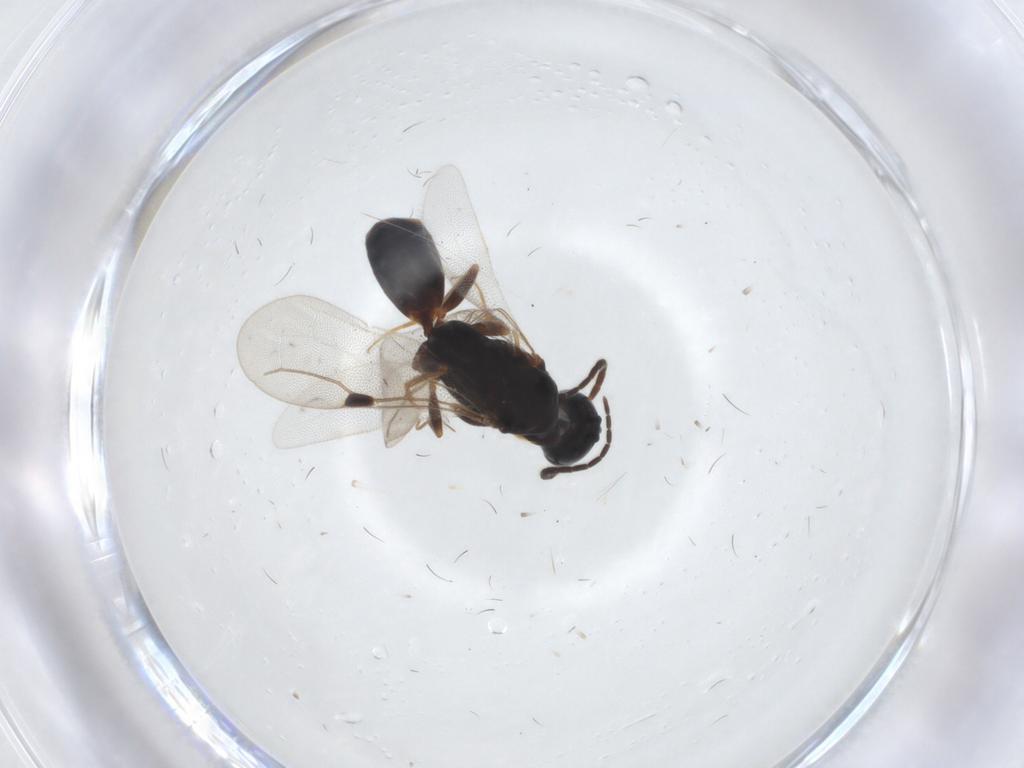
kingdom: Animalia
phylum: Arthropoda
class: Insecta
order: Hymenoptera
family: Bethylidae
